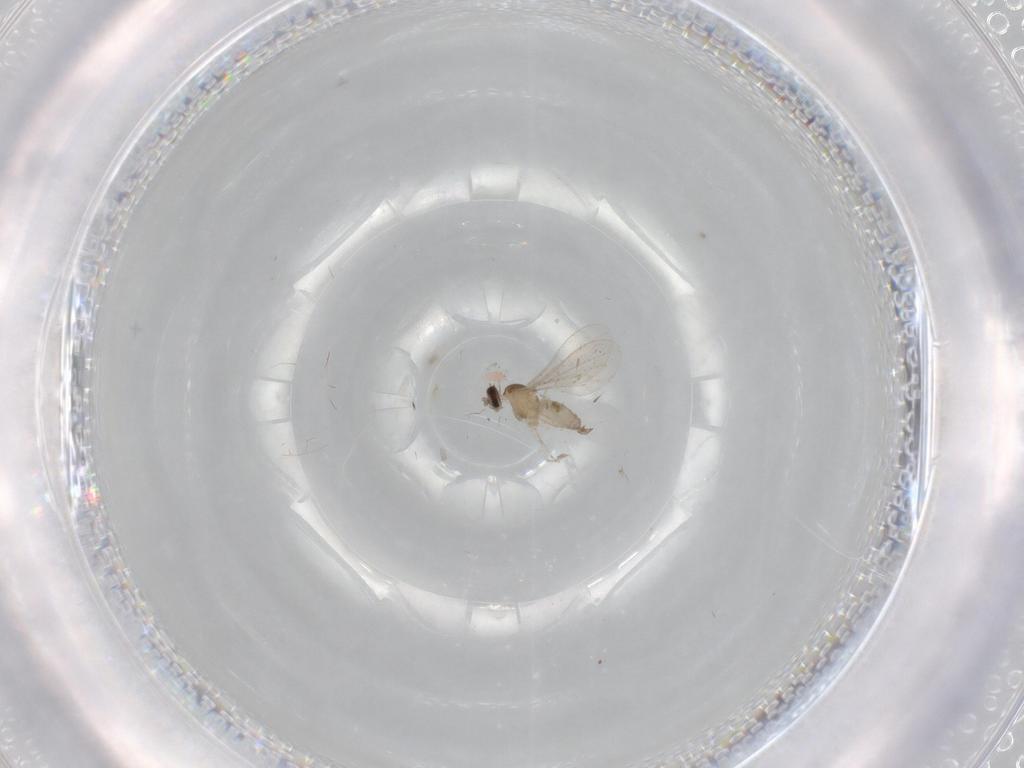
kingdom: Animalia
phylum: Arthropoda
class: Insecta
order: Diptera
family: Cecidomyiidae
